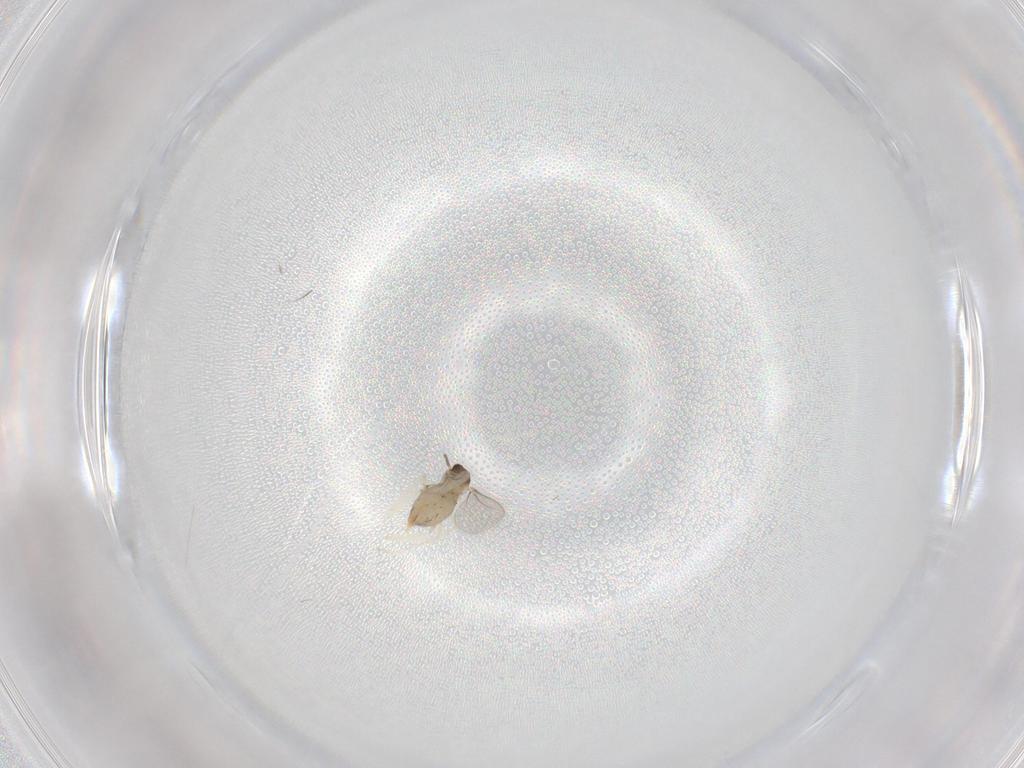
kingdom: Animalia
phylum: Arthropoda
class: Insecta
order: Diptera
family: Cecidomyiidae
